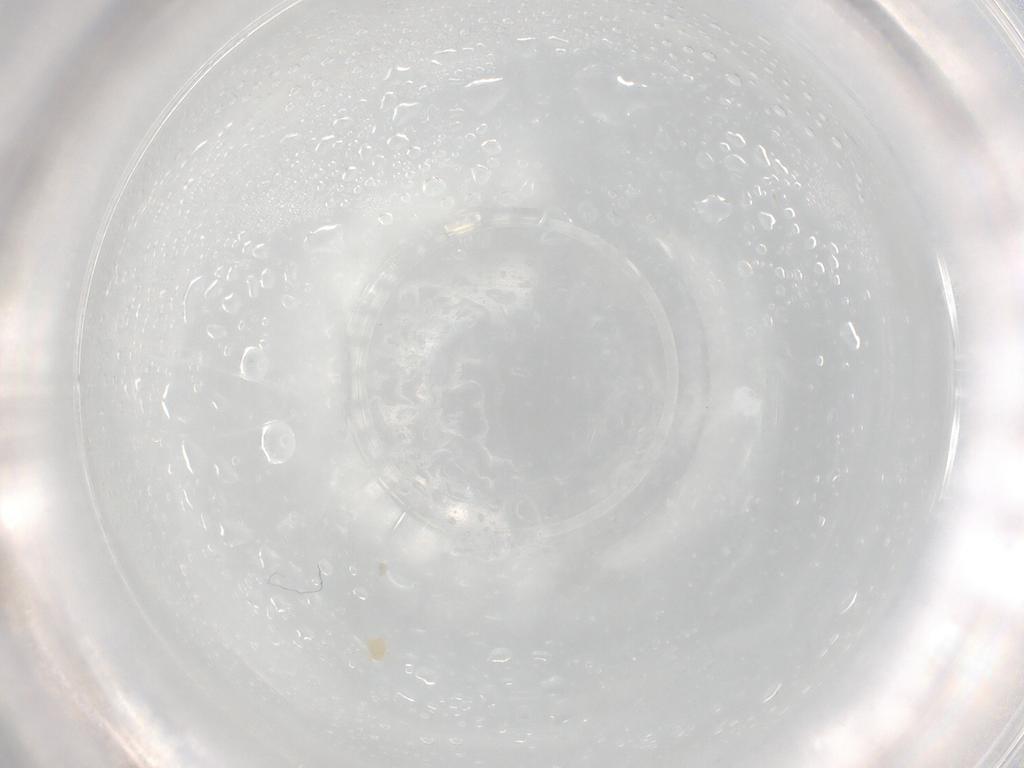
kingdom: Animalia
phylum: Arthropoda
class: Arachnida
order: Trombidiformes
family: Pygmephoridae
